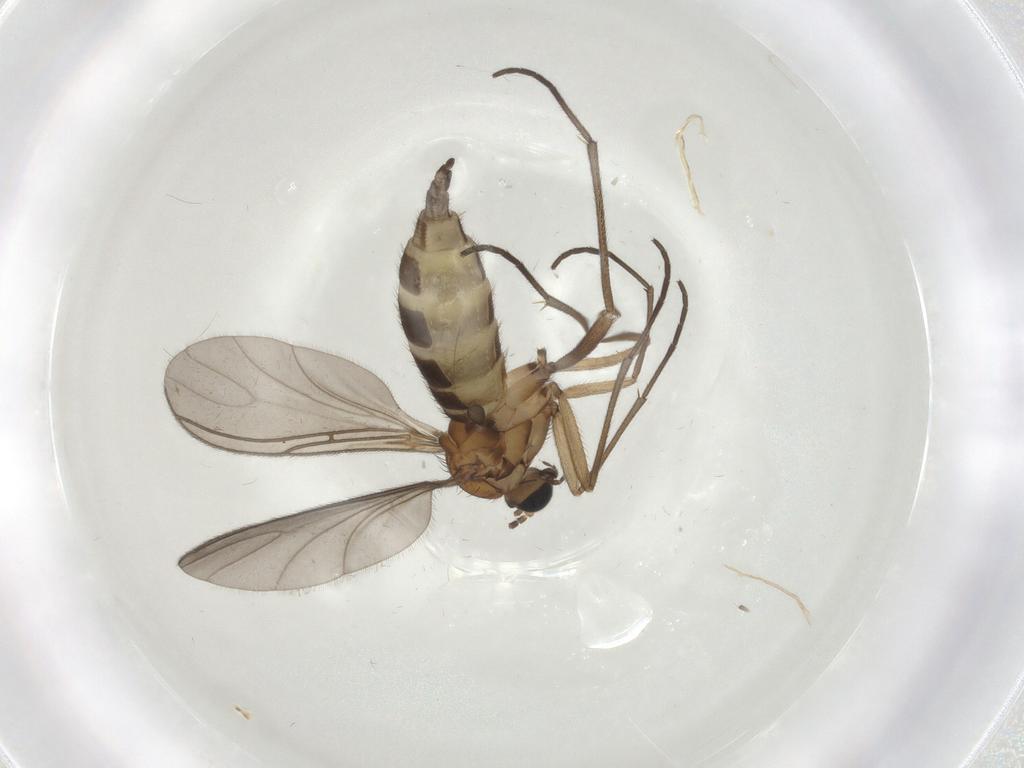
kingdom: Animalia
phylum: Arthropoda
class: Insecta
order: Diptera
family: Sciaridae
